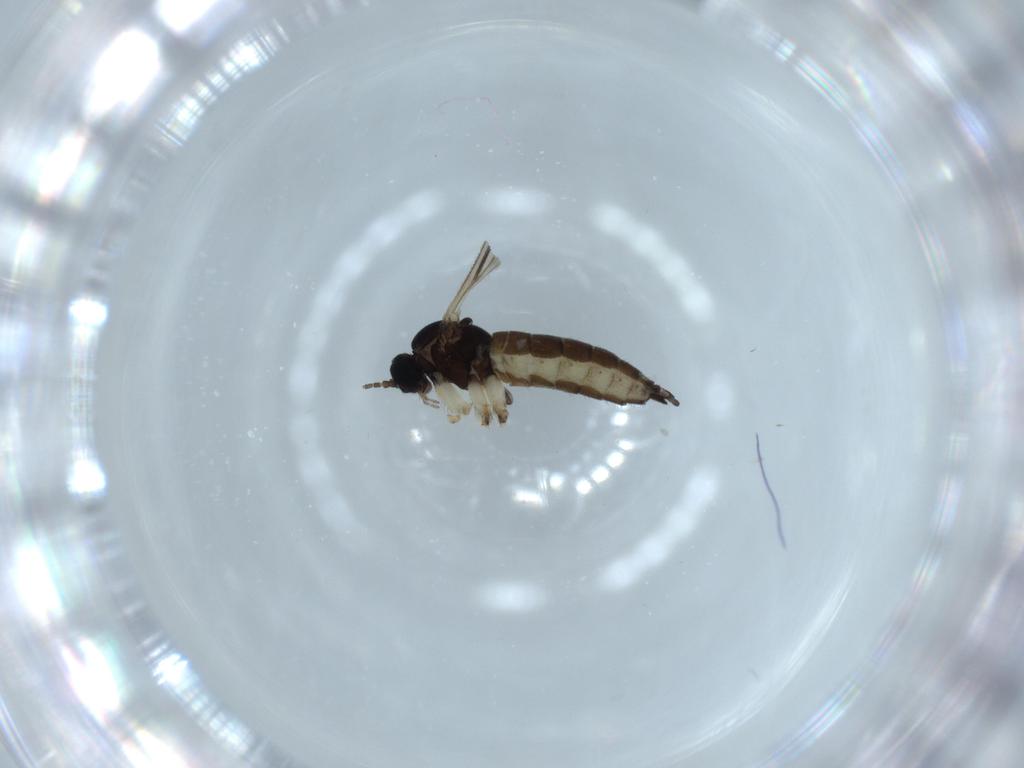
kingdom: Animalia
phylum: Arthropoda
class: Insecta
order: Diptera
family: Sciaridae
